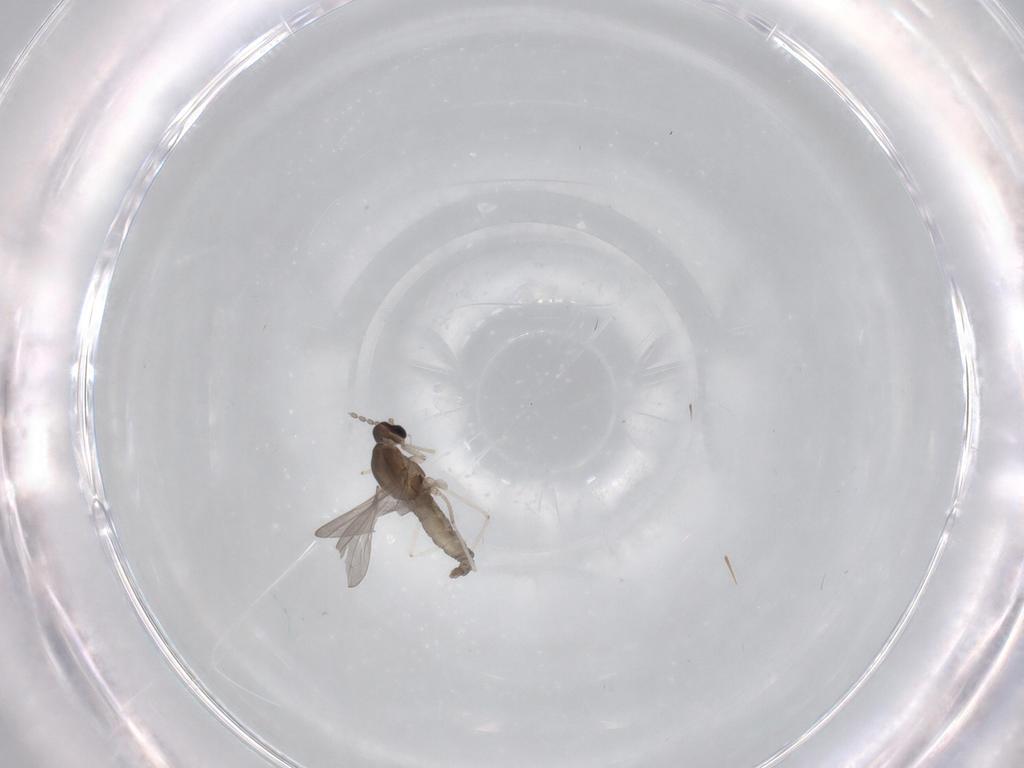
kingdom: Animalia
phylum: Arthropoda
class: Insecta
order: Diptera
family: Cecidomyiidae
